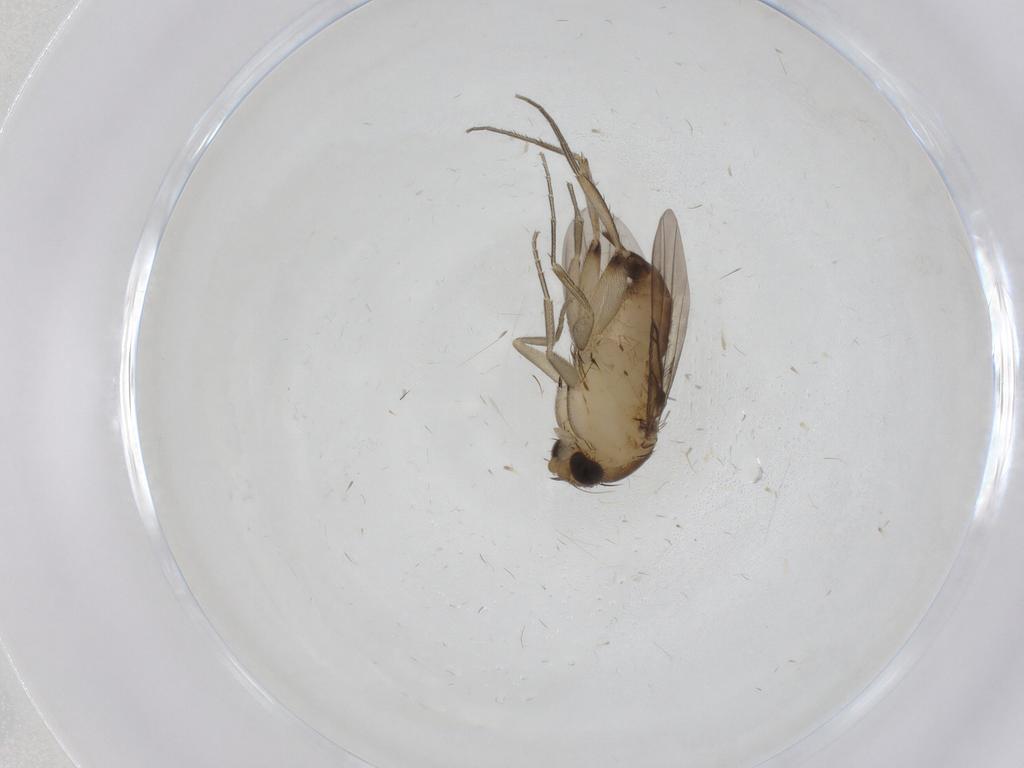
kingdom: Animalia
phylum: Arthropoda
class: Insecta
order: Diptera
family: Phoridae
